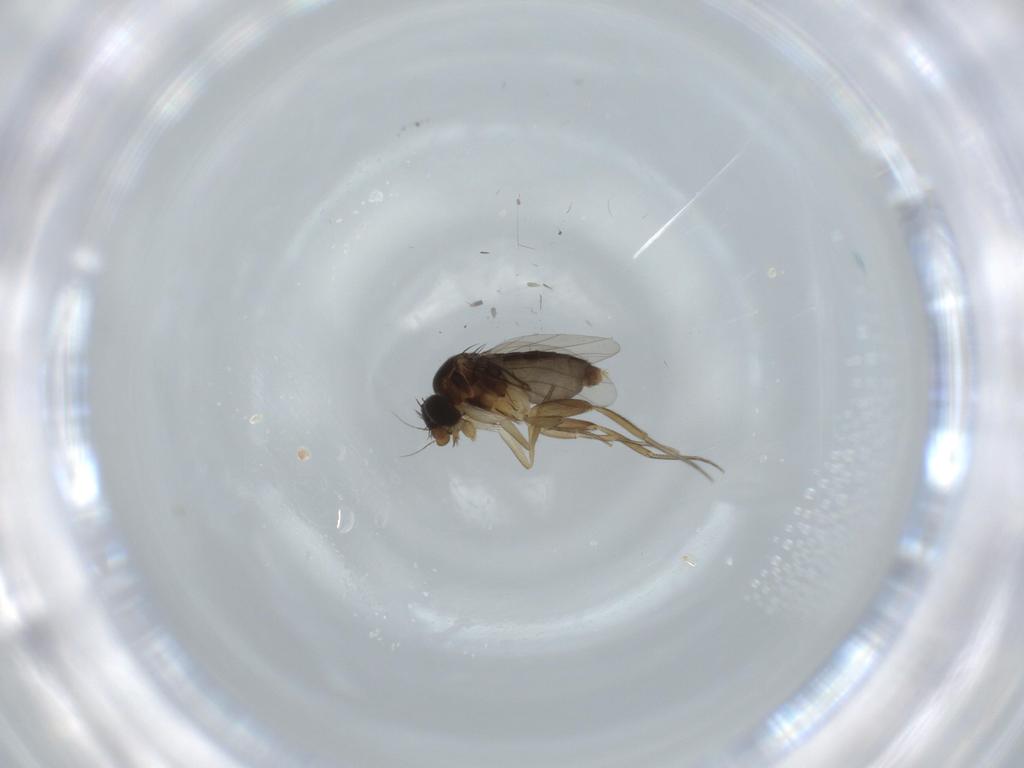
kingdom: Animalia
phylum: Arthropoda
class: Insecta
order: Diptera
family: Phoridae
